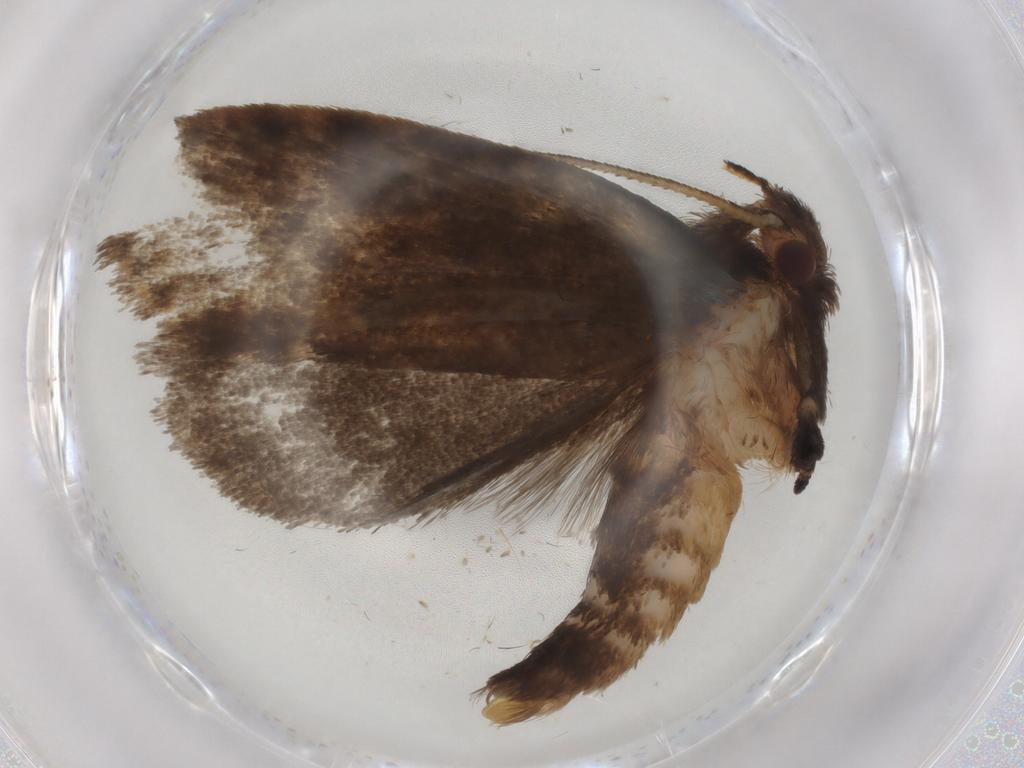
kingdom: Animalia
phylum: Arthropoda
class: Insecta
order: Lepidoptera
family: Tineidae
